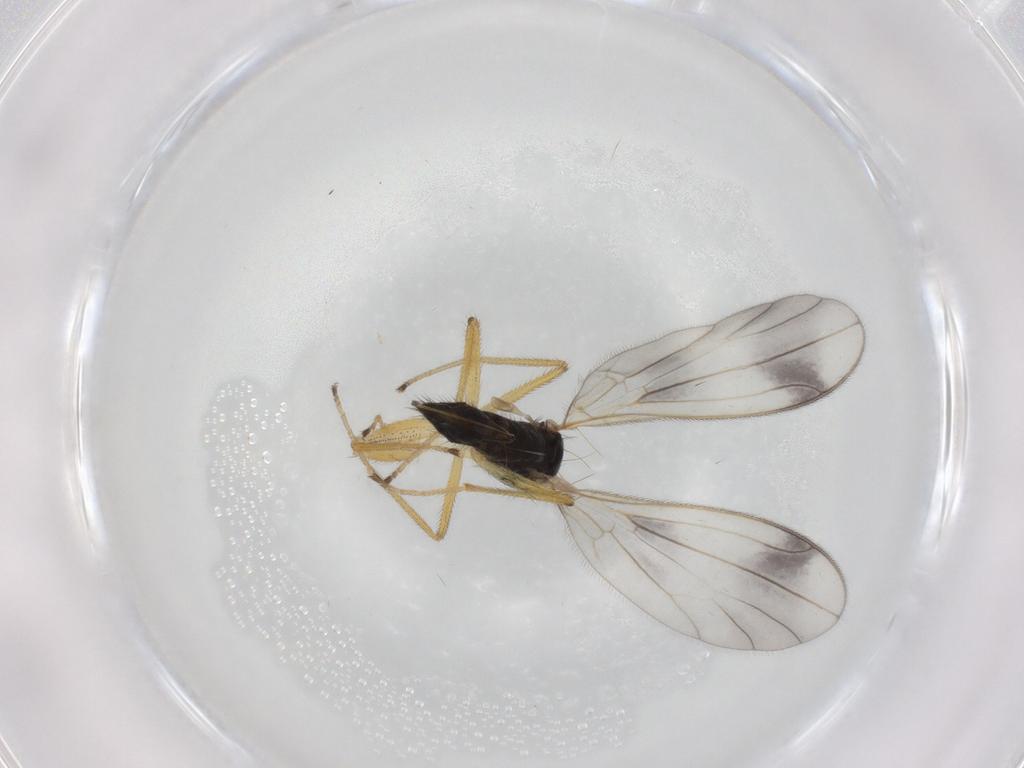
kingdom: Animalia
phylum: Arthropoda
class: Insecta
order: Diptera
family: Ceratopogonidae
